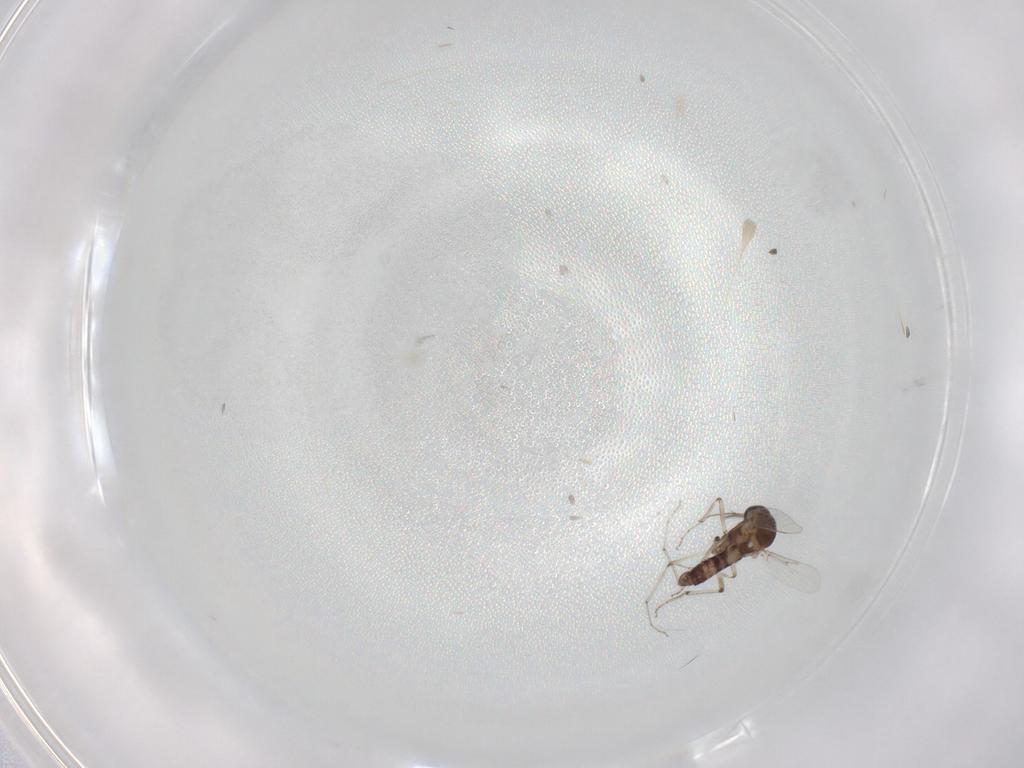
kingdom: Animalia
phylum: Arthropoda
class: Insecta
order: Diptera
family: Ceratopogonidae
